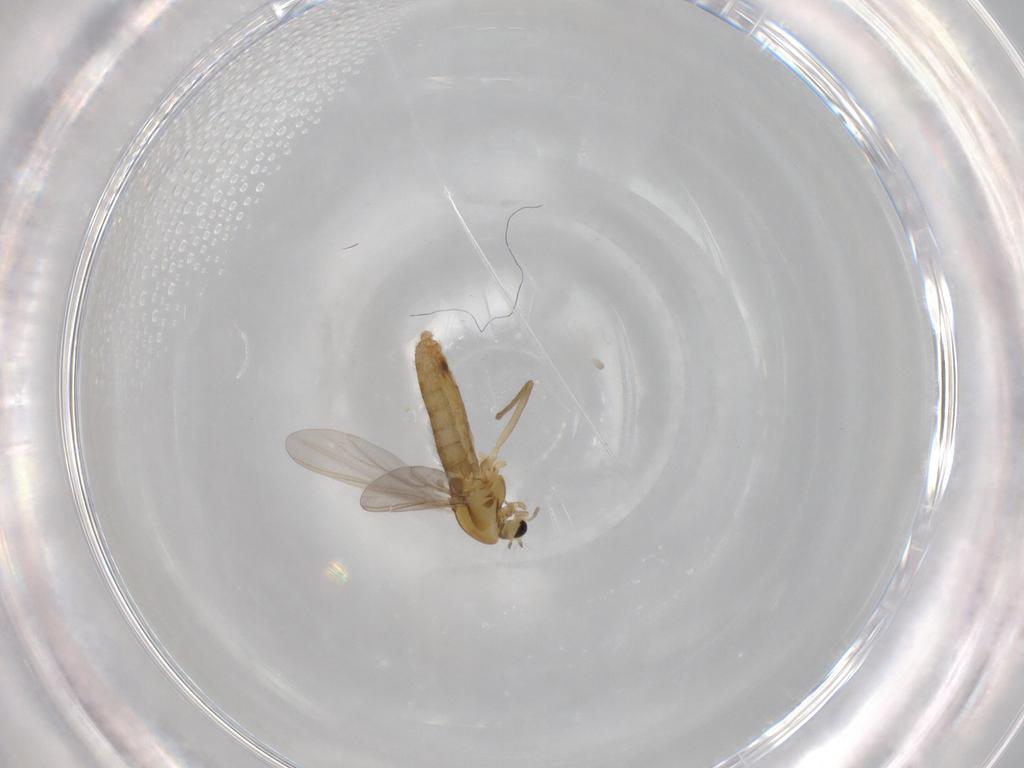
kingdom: Animalia
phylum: Arthropoda
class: Insecta
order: Diptera
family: Chironomidae
